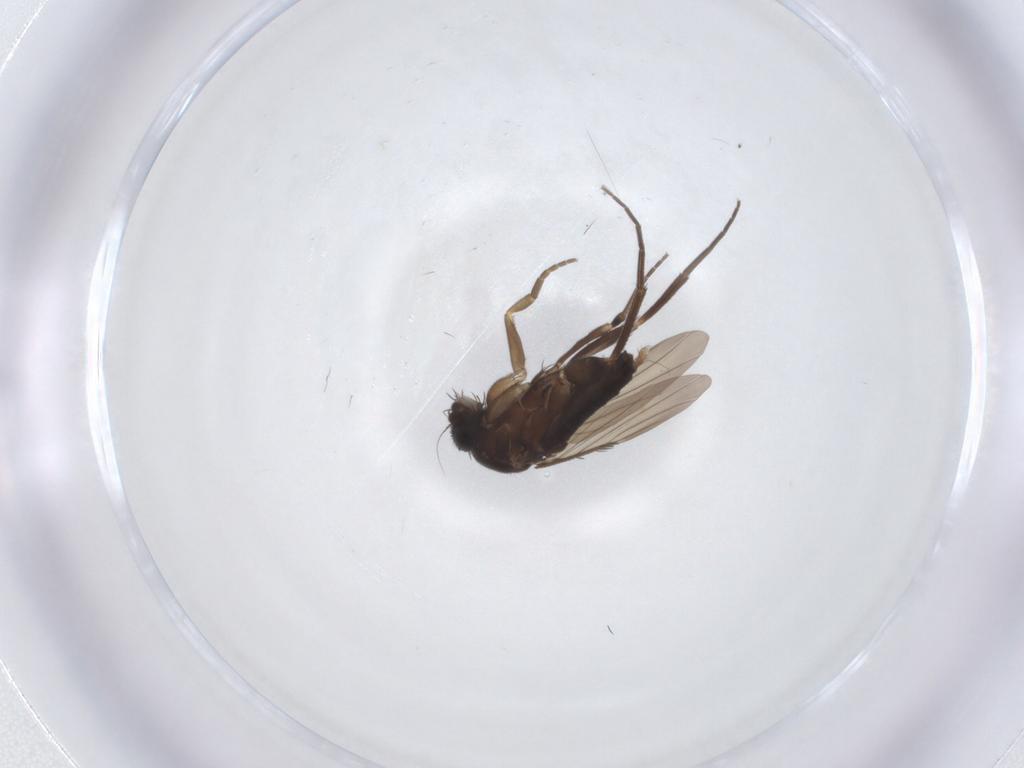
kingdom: Animalia
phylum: Arthropoda
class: Insecta
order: Diptera
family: Phoridae
